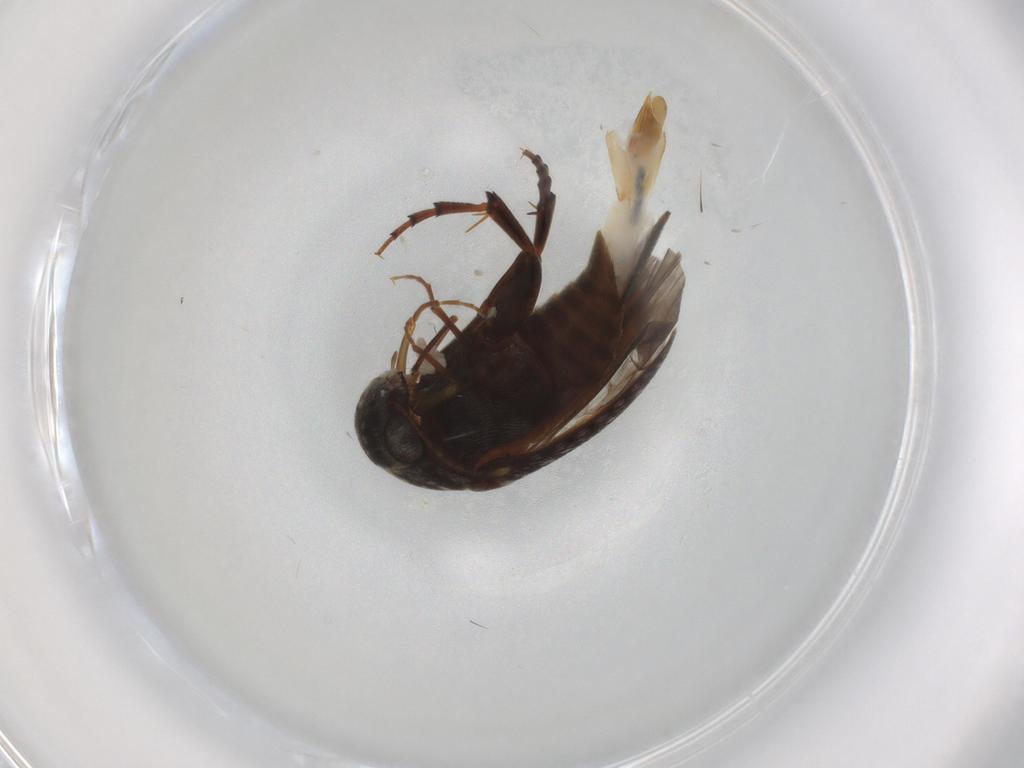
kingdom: Animalia
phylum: Arthropoda
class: Insecta
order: Coleoptera
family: Mordellidae
